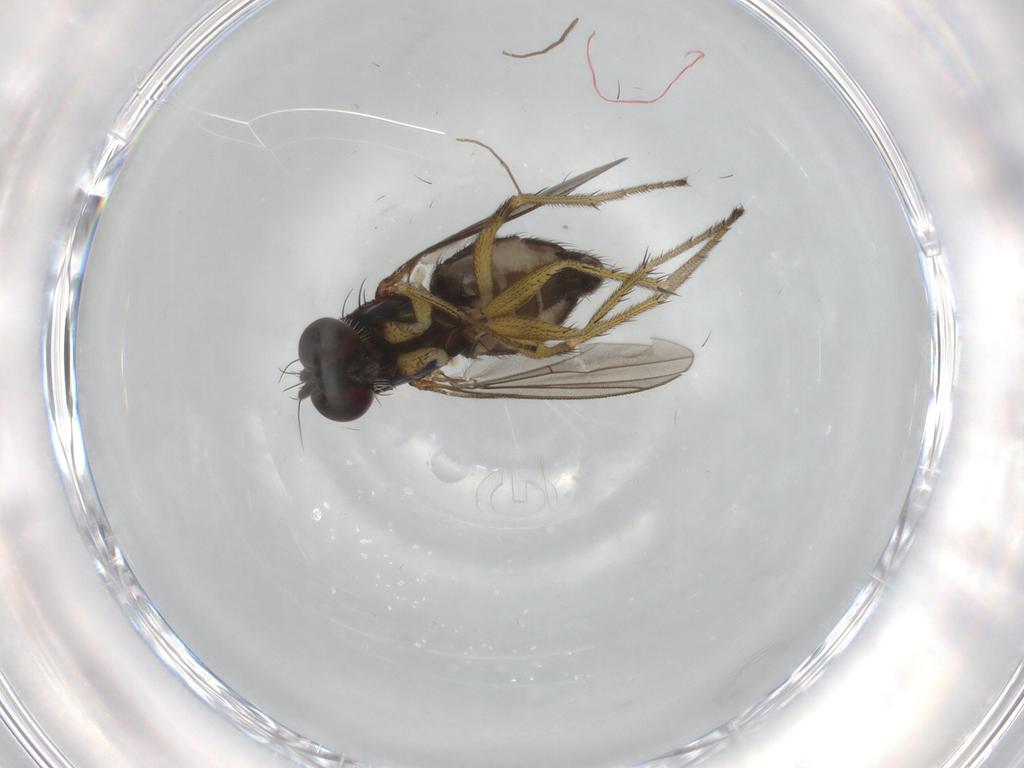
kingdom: Animalia
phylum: Arthropoda
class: Insecta
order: Diptera
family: Dolichopodidae
